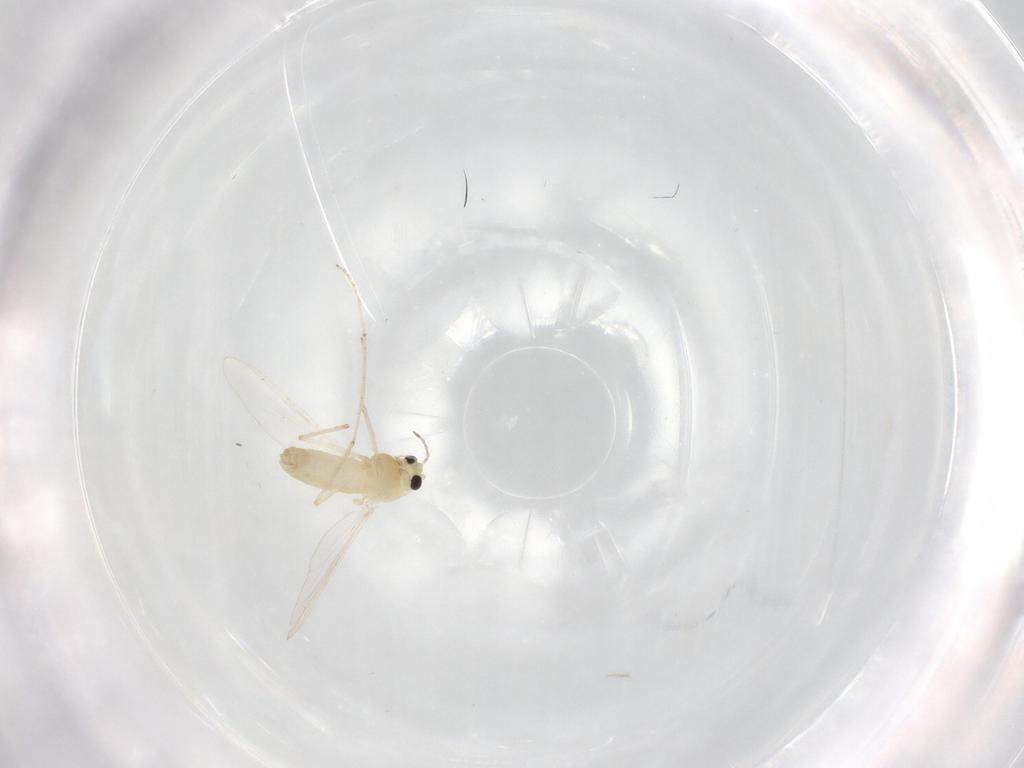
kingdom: Animalia
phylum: Arthropoda
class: Insecta
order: Diptera
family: Chironomidae
